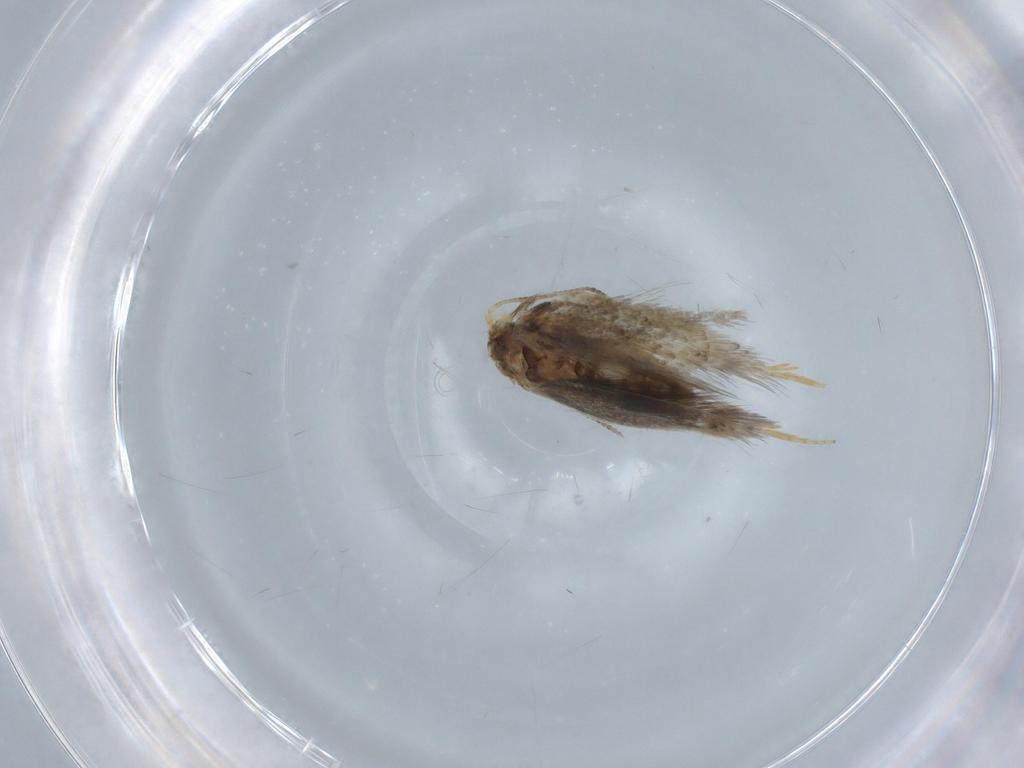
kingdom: Animalia
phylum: Arthropoda
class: Insecta
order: Lepidoptera
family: Nepticulidae
